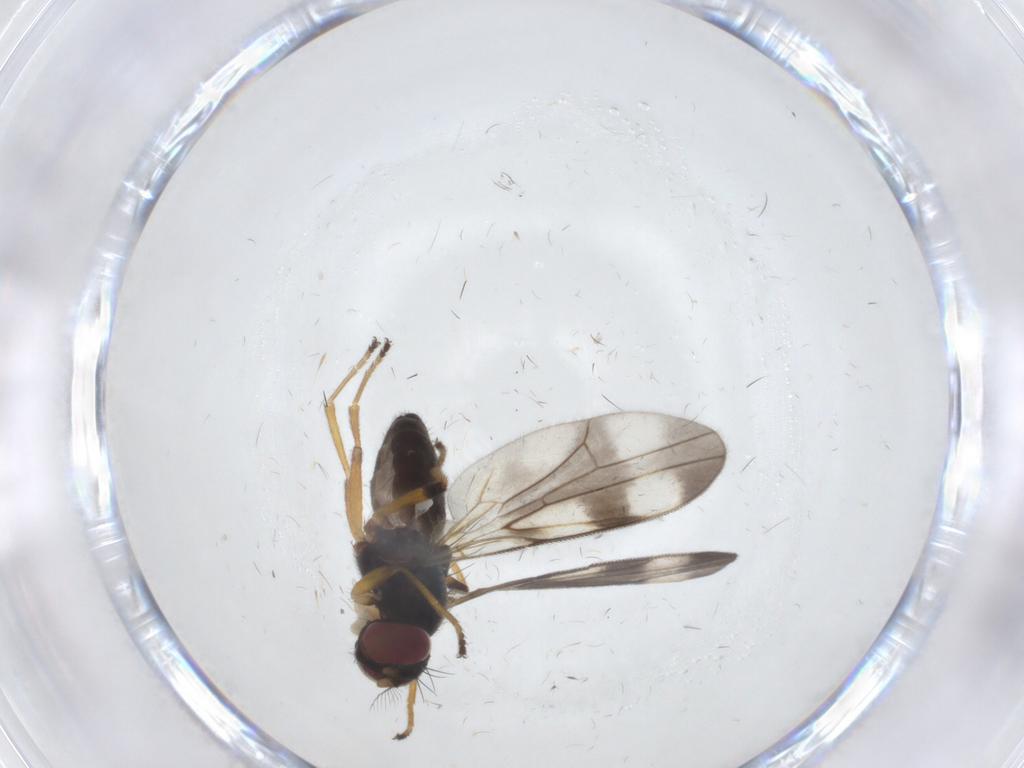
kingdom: Animalia
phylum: Arthropoda
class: Insecta
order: Diptera
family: Periscelididae
